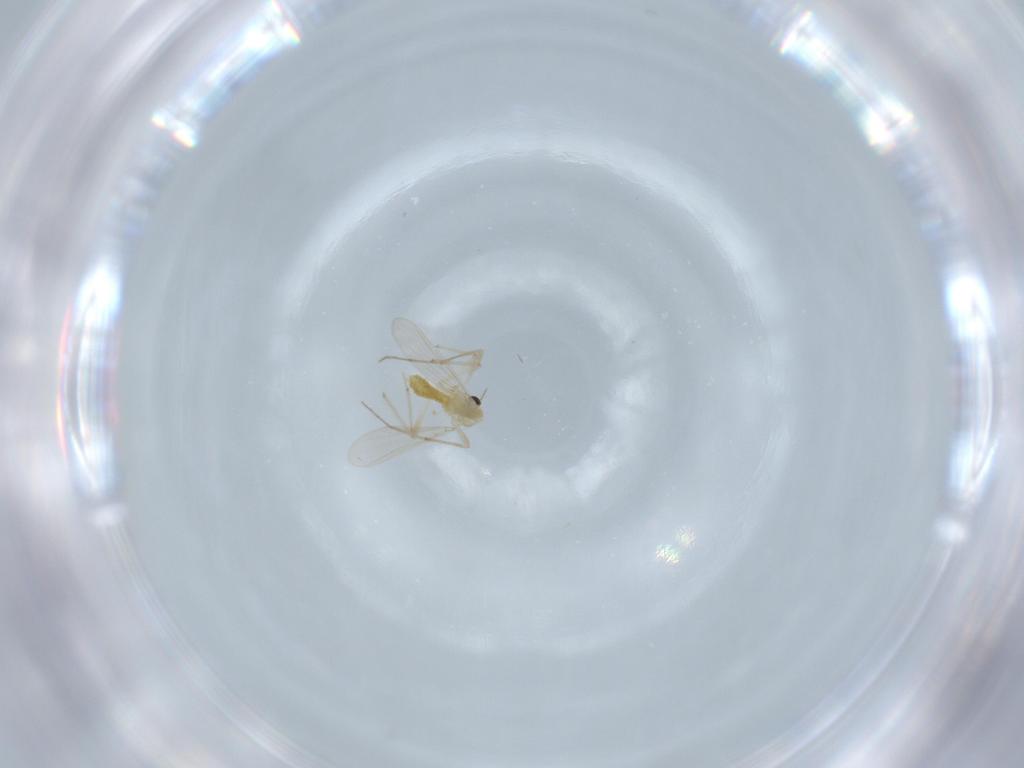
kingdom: Animalia
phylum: Arthropoda
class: Insecta
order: Diptera
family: Chironomidae
